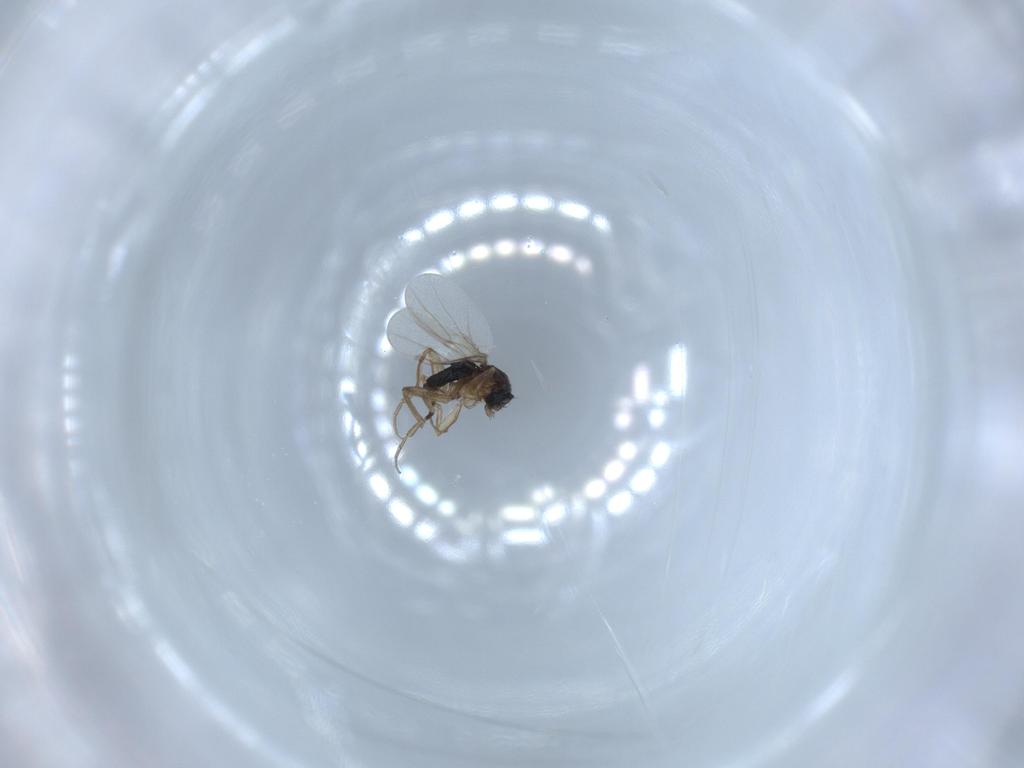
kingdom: Animalia
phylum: Arthropoda
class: Insecta
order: Diptera
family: Phoridae
